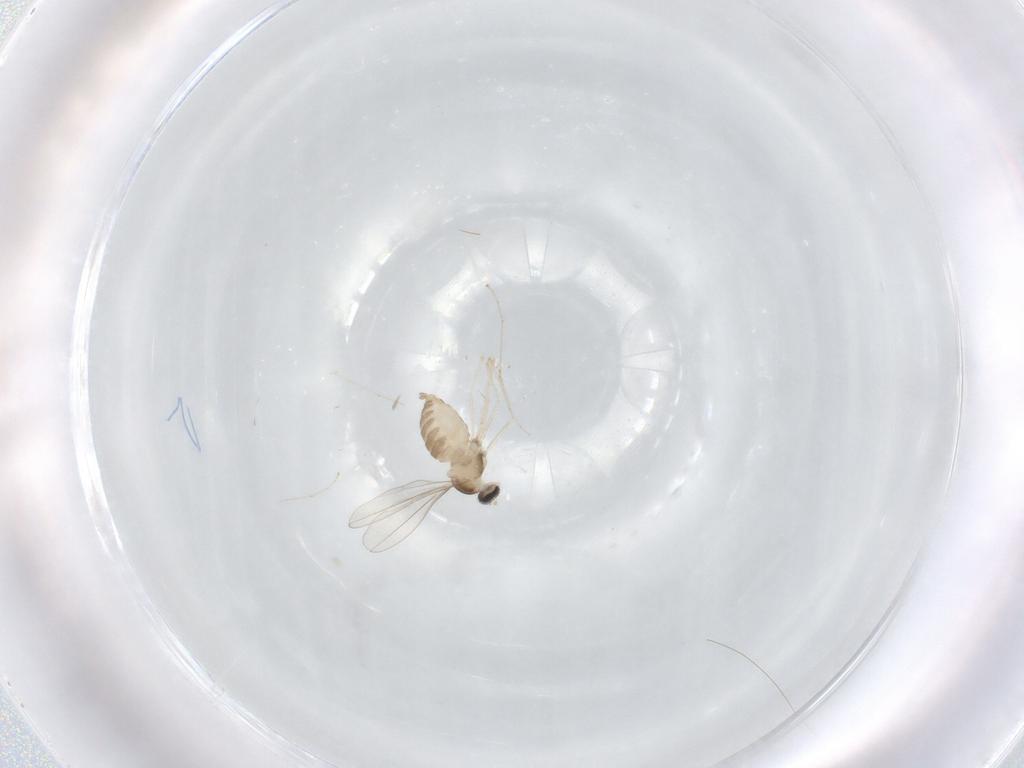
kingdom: Animalia
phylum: Arthropoda
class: Insecta
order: Diptera
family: Cecidomyiidae
